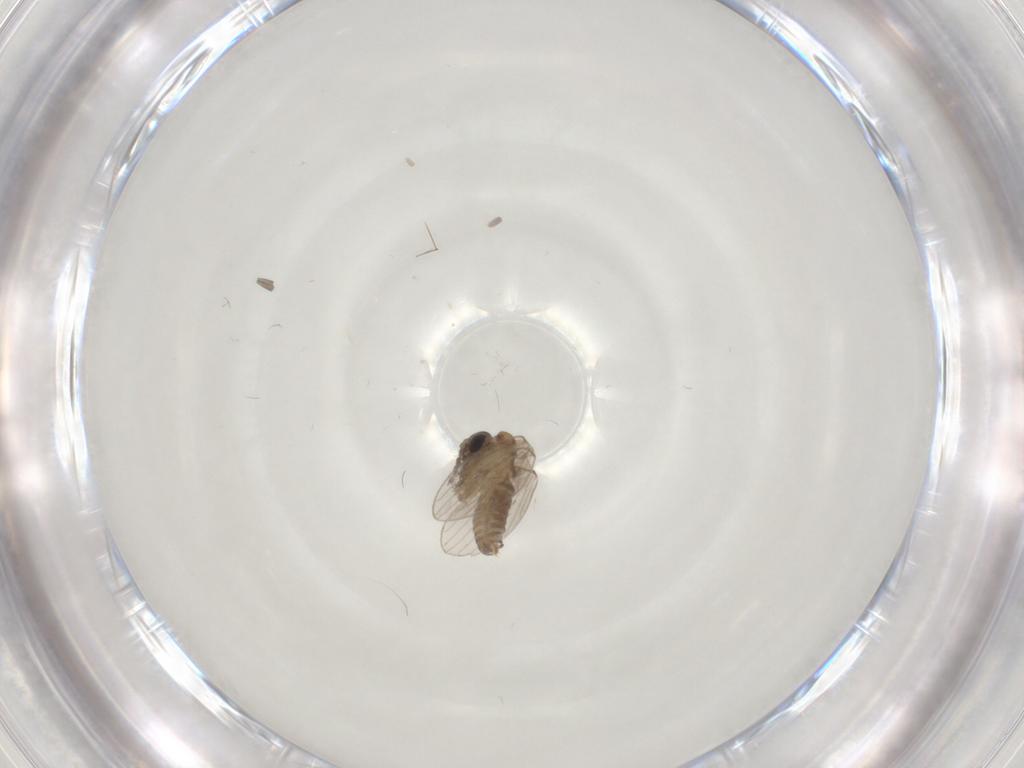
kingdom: Animalia
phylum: Arthropoda
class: Insecta
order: Diptera
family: Psychodidae
